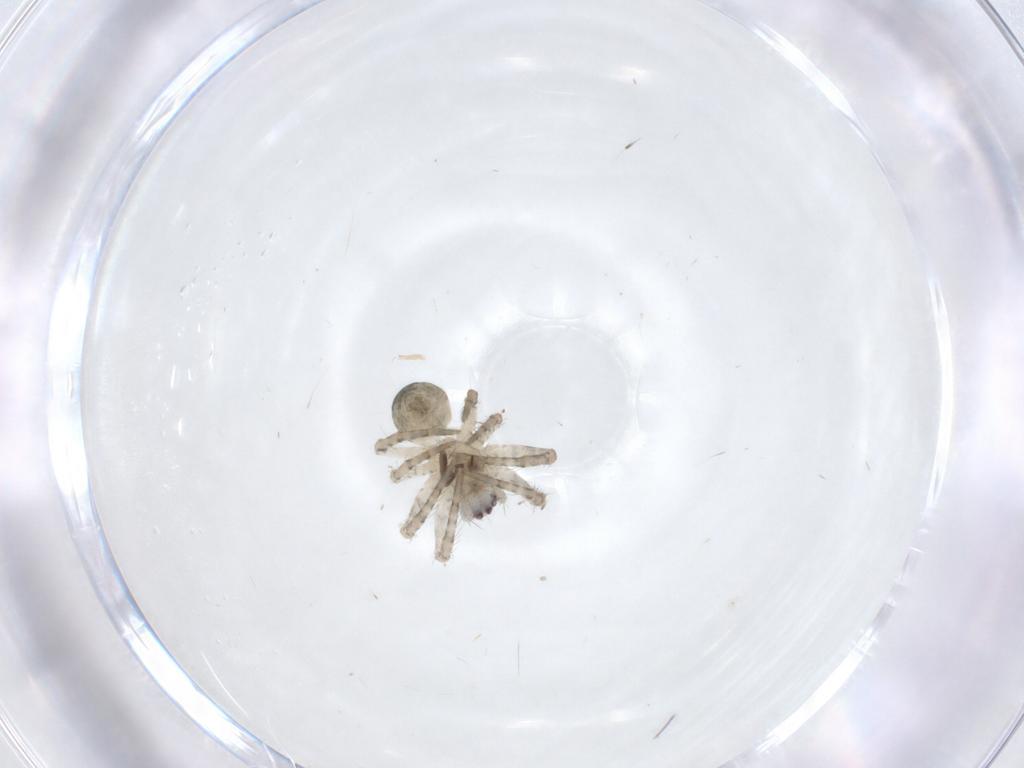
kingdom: Animalia
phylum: Arthropoda
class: Arachnida
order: Araneae
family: Araneidae
